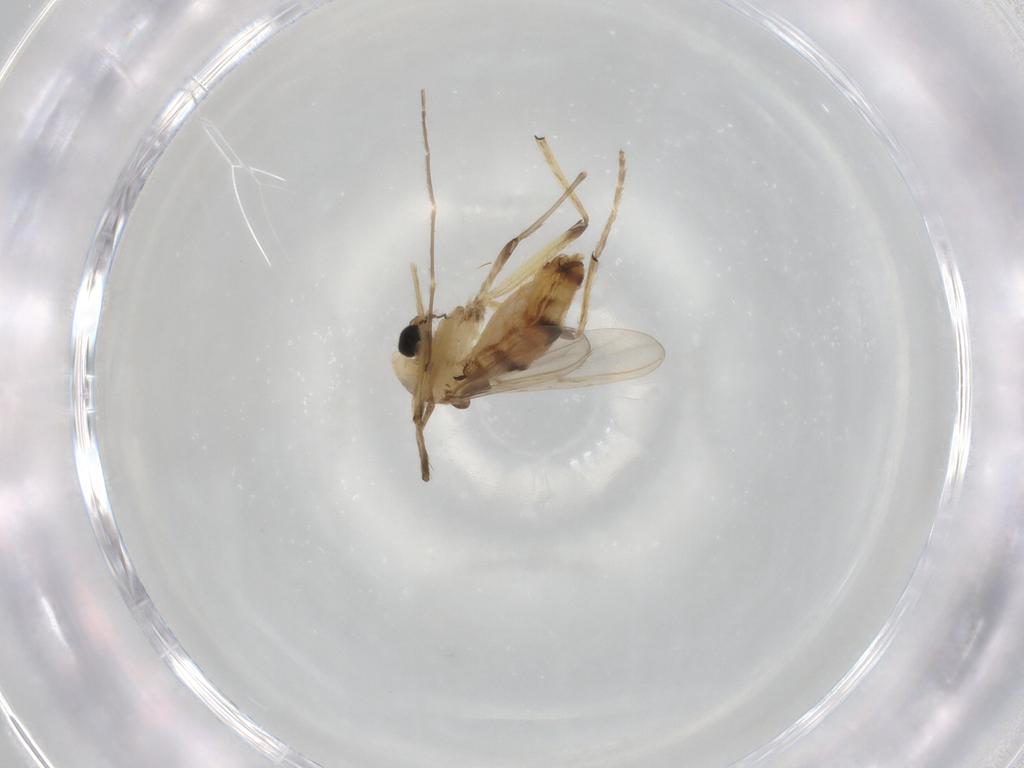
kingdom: Animalia
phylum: Arthropoda
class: Insecta
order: Diptera
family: Chironomidae
